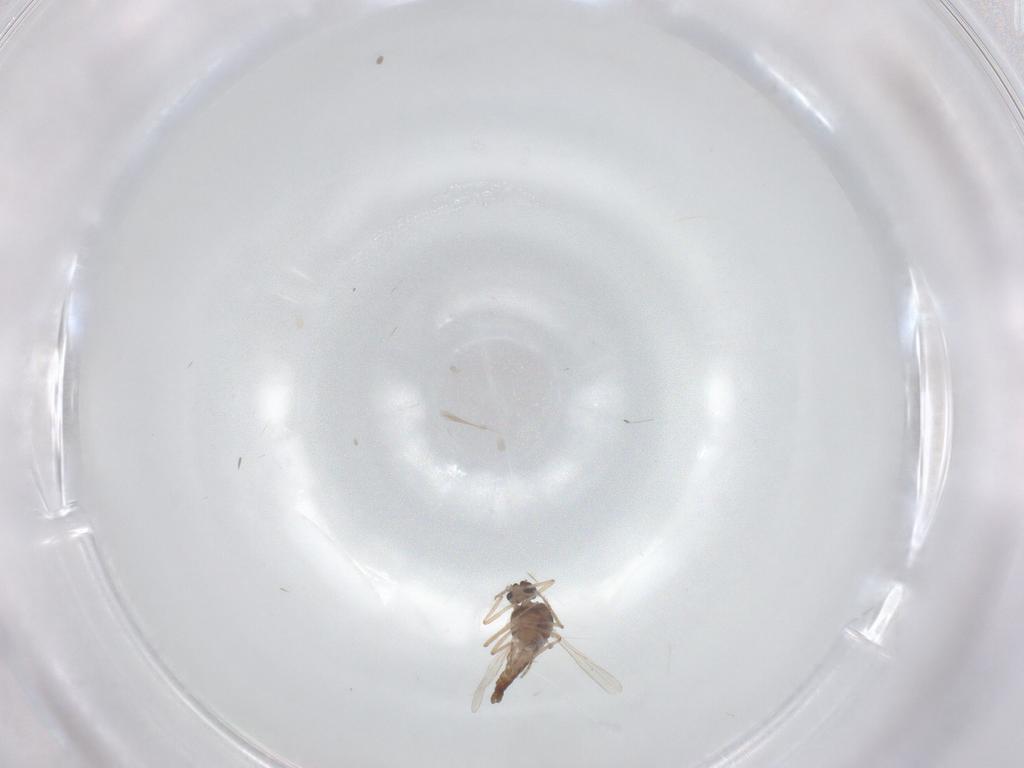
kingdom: Animalia
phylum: Arthropoda
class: Insecta
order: Diptera
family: Ceratopogonidae
